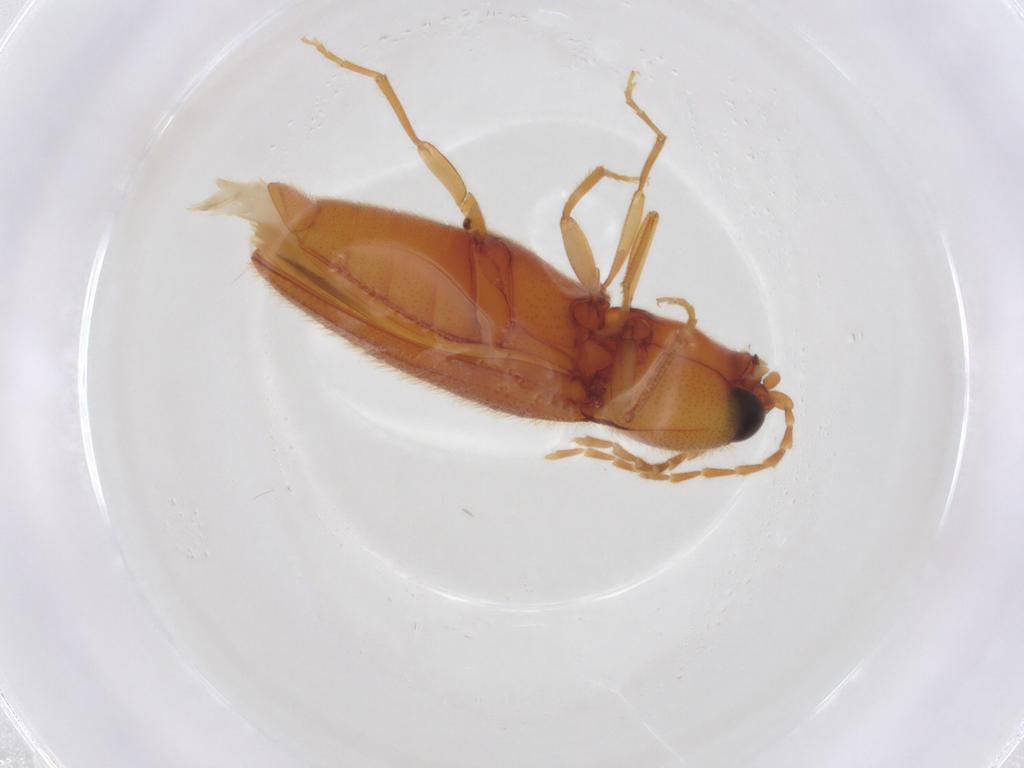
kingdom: Animalia
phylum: Arthropoda
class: Insecta
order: Coleoptera
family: Elateridae
